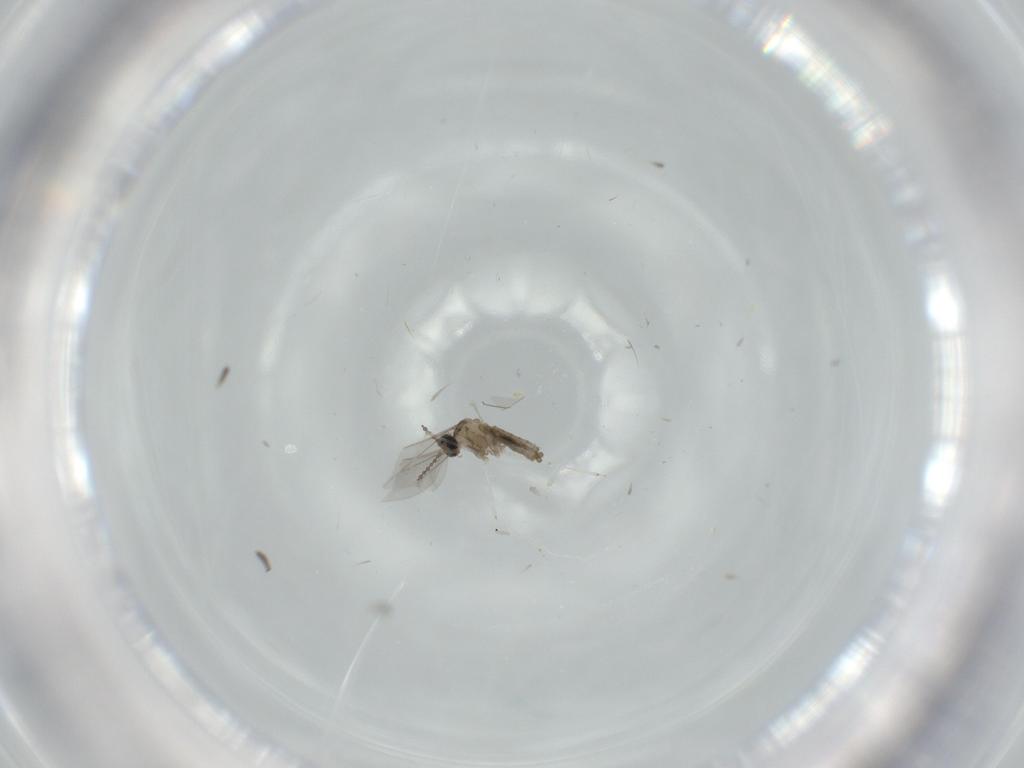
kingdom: Animalia
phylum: Arthropoda
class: Insecta
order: Diptera
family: Cecidomyiidae
